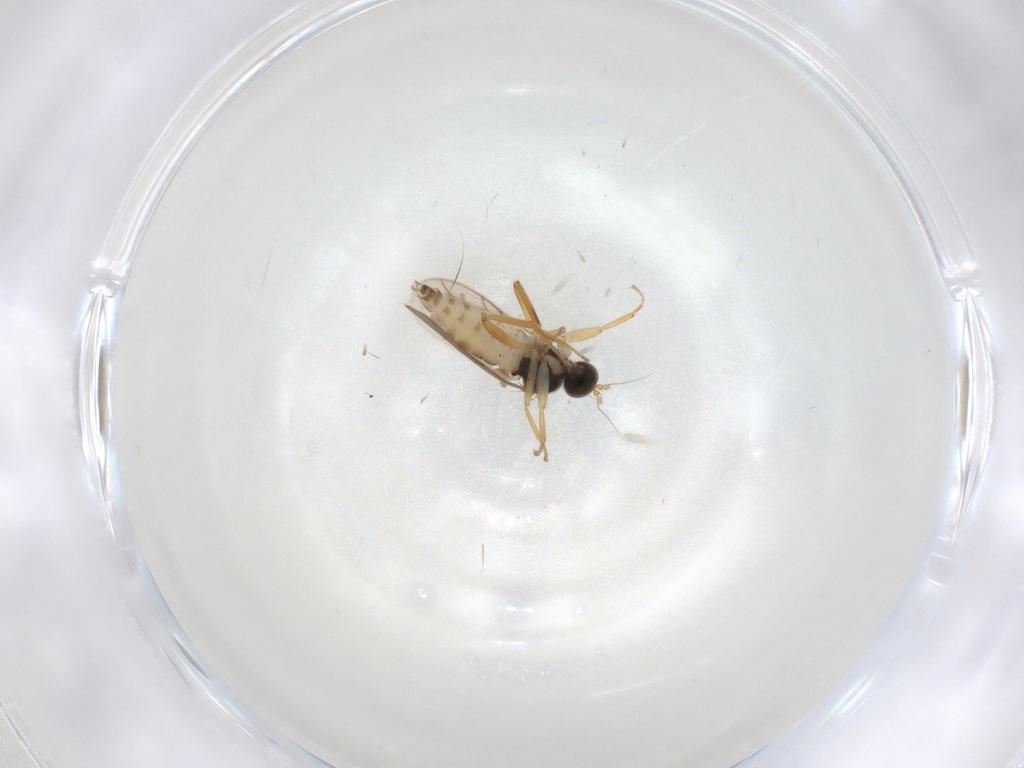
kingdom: Animalia
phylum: Arthropoda
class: Insecta
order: Diptera
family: Hybotidae
